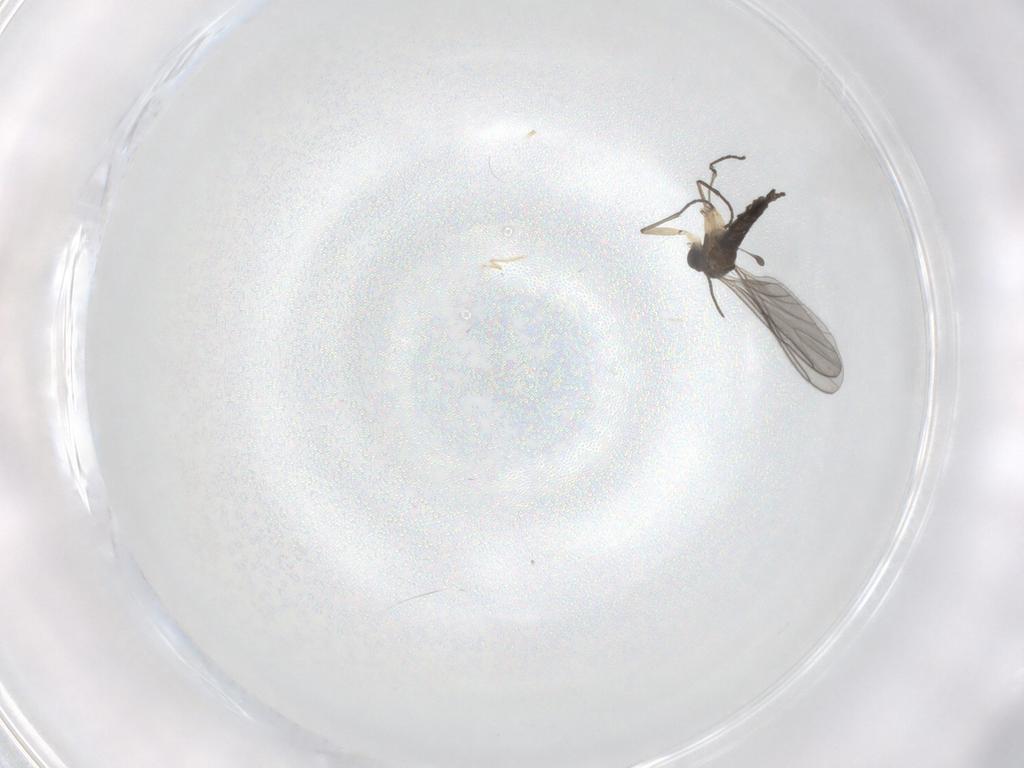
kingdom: Animalia
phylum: Arthropoda
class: Insecta
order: Diptera
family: Sciaridae
